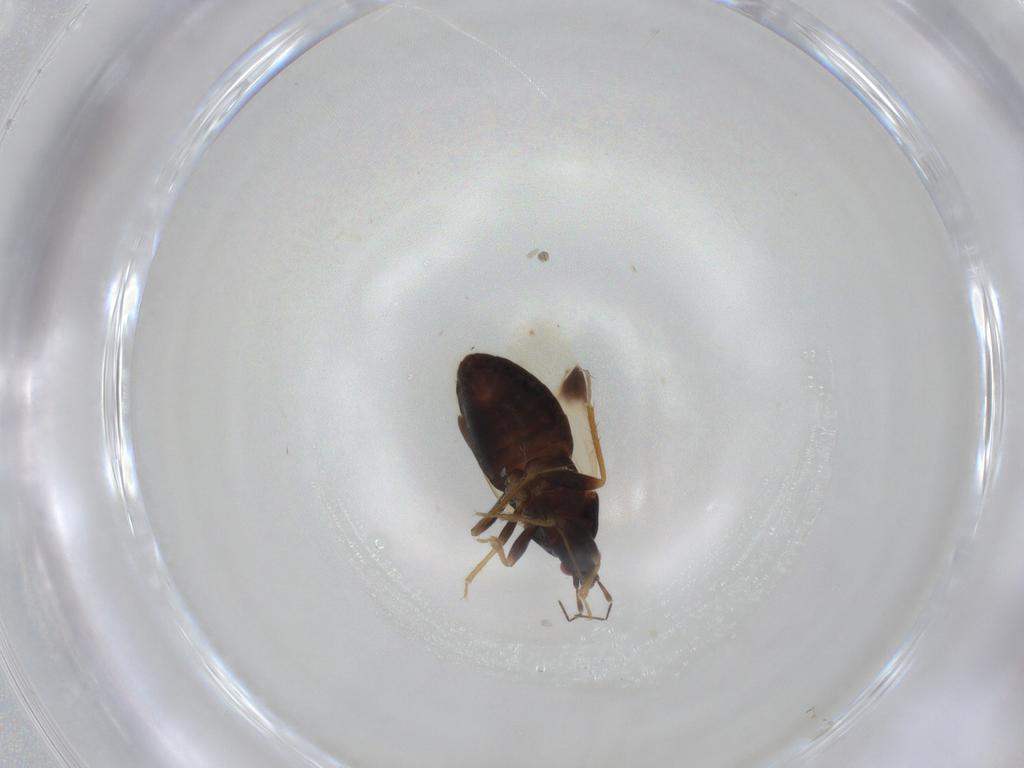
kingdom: Animalia
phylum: Arthropoda
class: Insecta
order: Hemiptera
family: Anthocoridae
